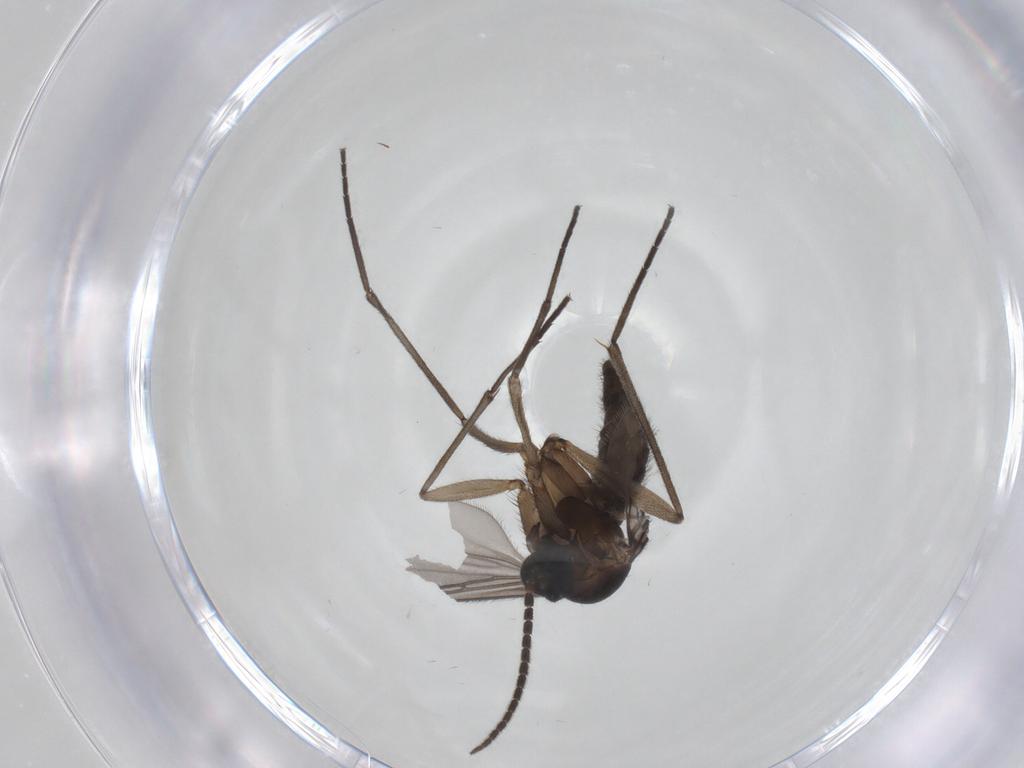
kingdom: Animalia
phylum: Arthropoda
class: Insecta
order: Diptera
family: Sciaridae
